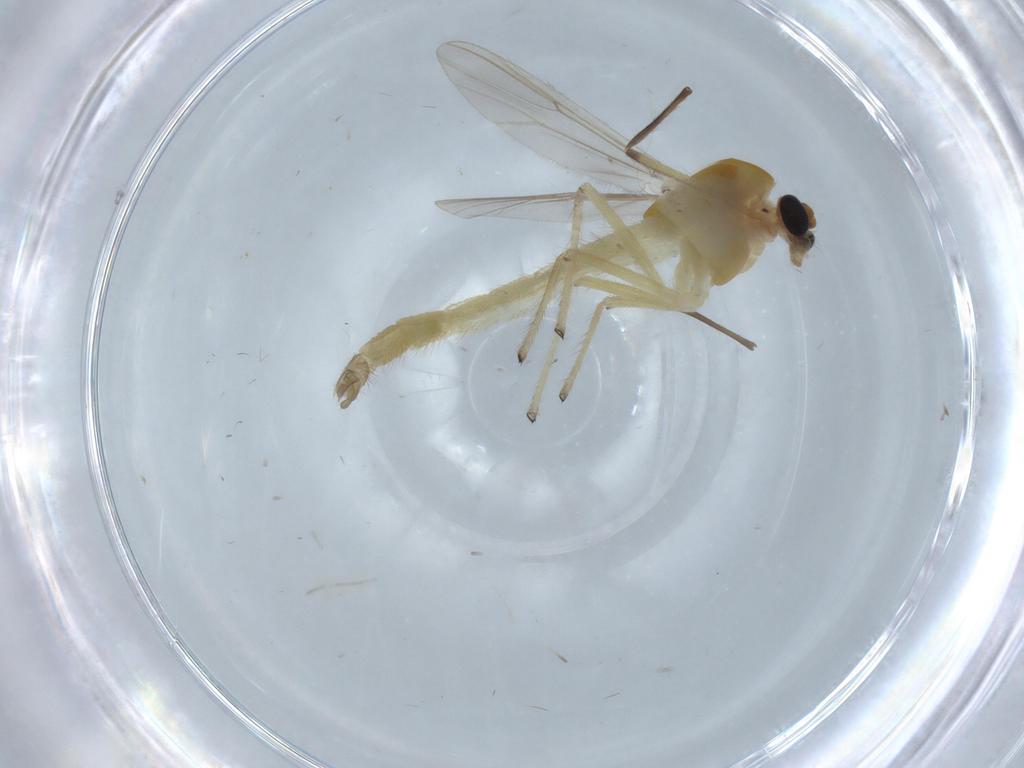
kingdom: Animalia
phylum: Arthropoda
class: Insecta
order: Diptera
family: Chironomidae
